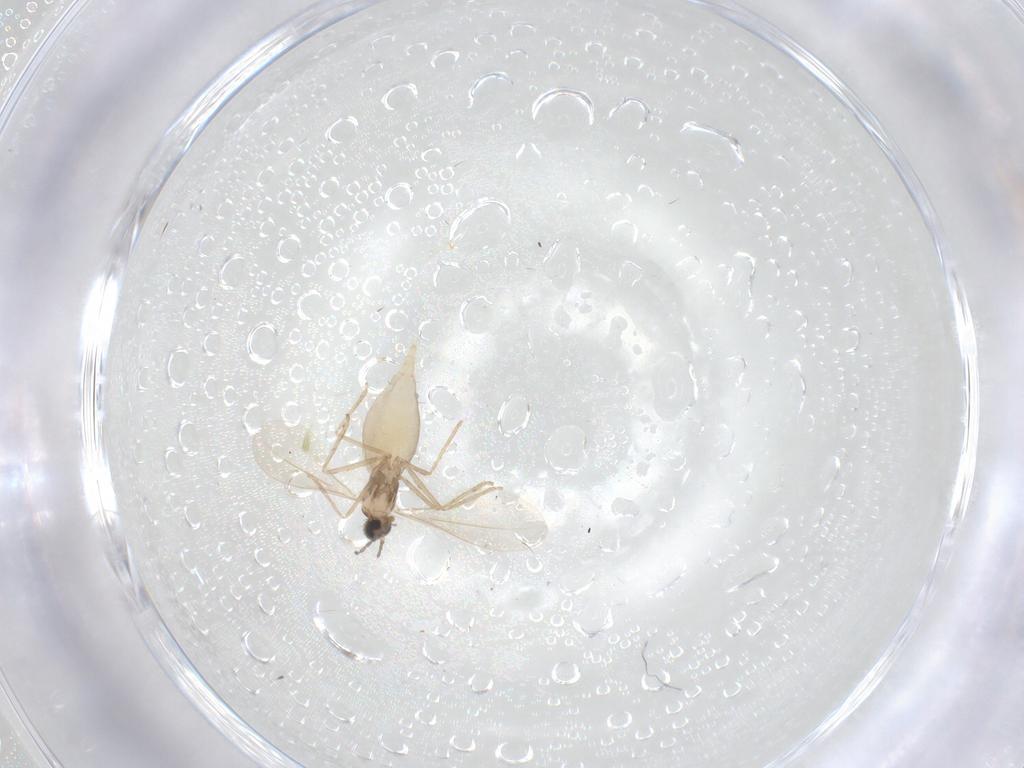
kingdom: Animalia
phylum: Arthropoda
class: Insecta
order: Diptera
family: Cecidomyiidae
